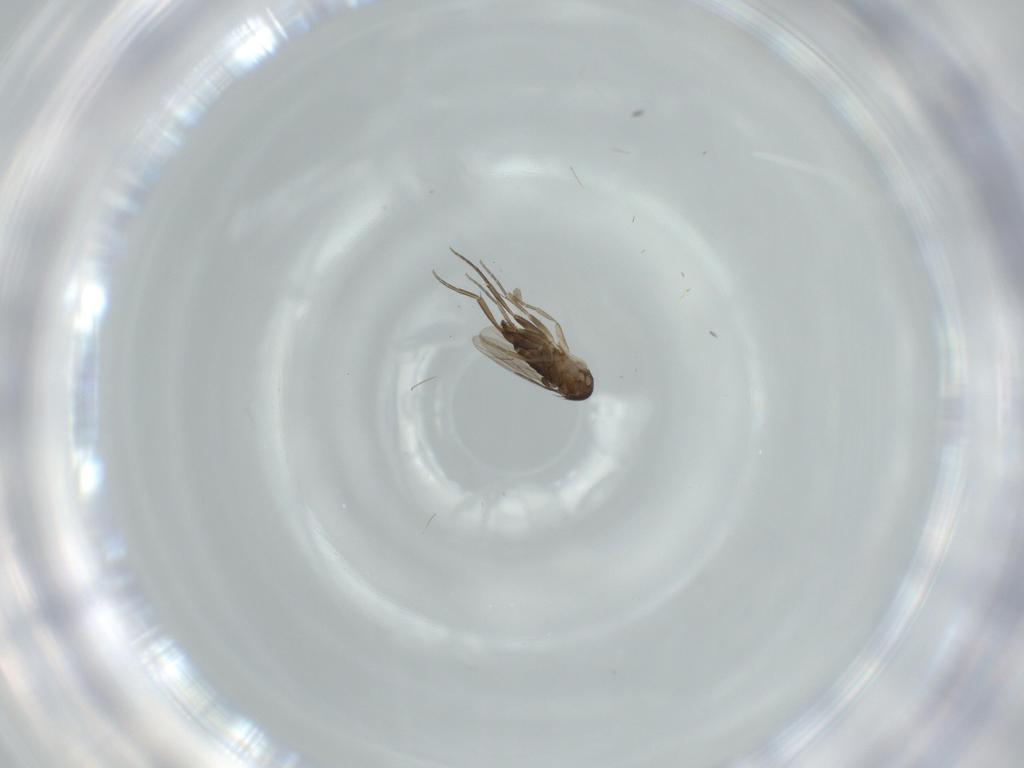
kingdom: Animalia
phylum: Arthropoda
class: Insecta
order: Diptera
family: Phoridae
